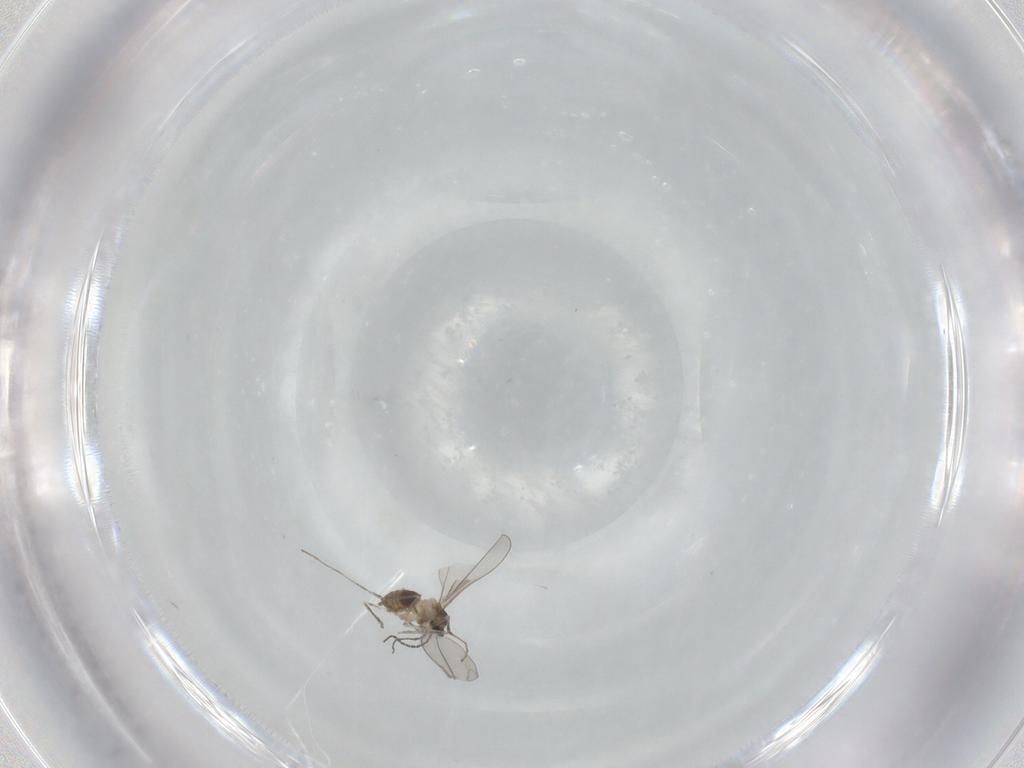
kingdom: Animalia
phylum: Arthropoda
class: Insecta
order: Diptera
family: Cecidomyiidae
